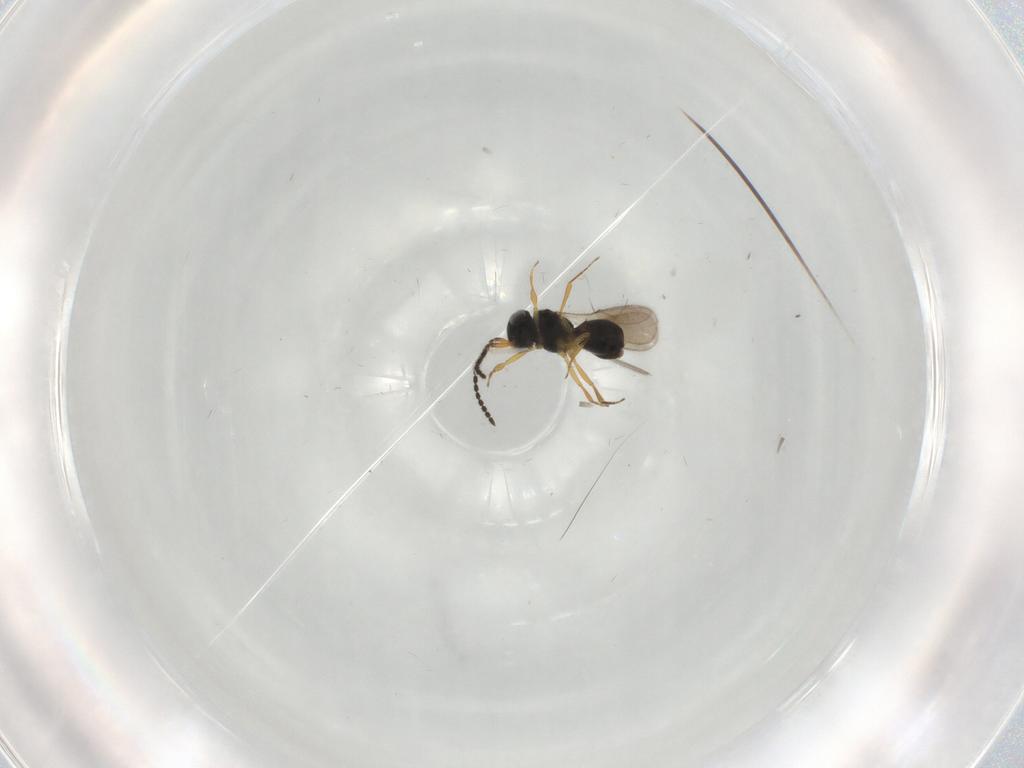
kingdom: Animalia
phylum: Arthropoda
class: Insecta
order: Hymenoptera
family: Scelionidae
